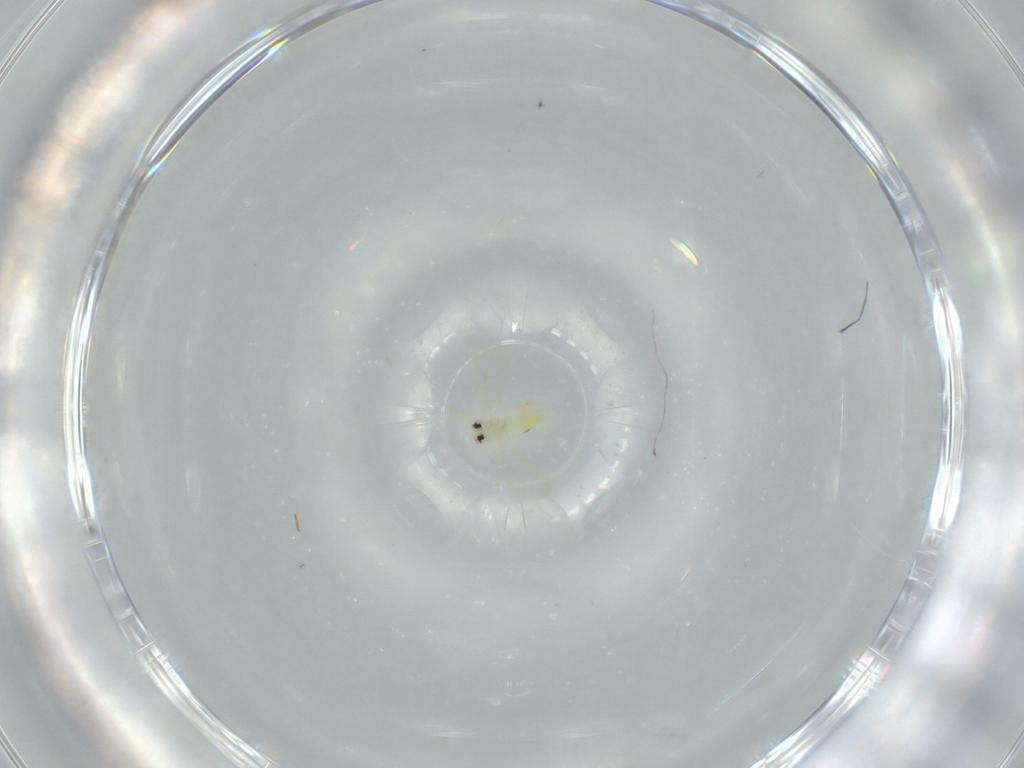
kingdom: Animalia
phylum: Arthropoda
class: Insecta
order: Hemiptera
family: Aleyrodidae
